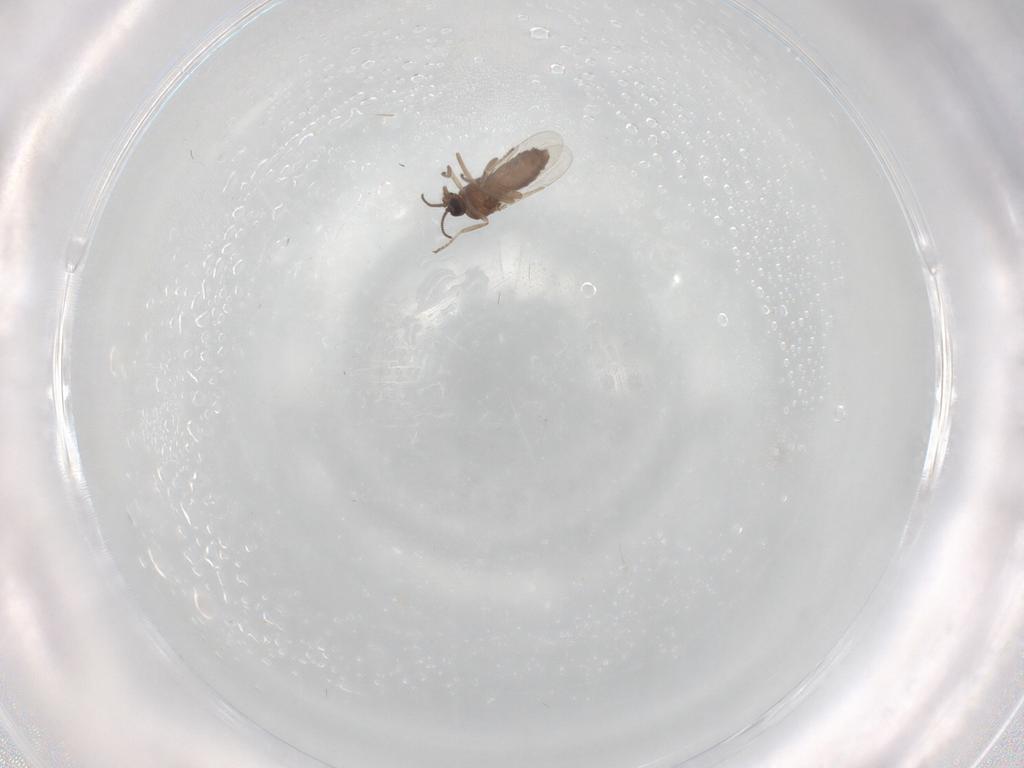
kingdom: Animalia
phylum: Arthropoda
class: Insecta
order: Diptera
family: Ceratopogonidae
